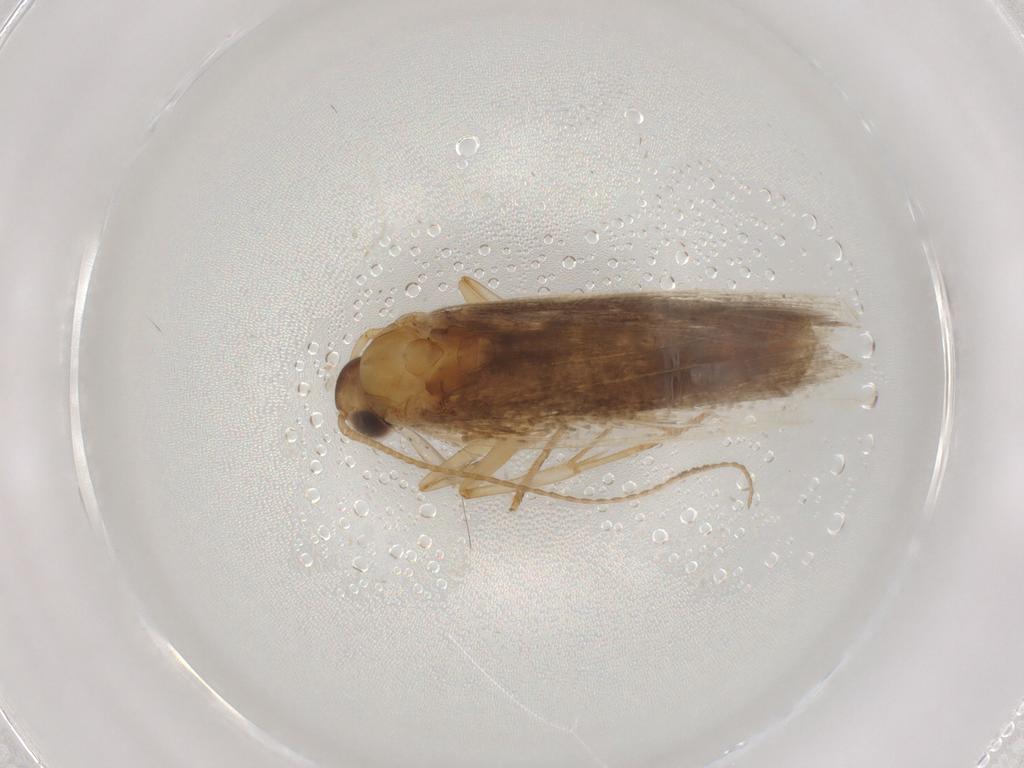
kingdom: Animalia
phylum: Arthropoda
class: Insecta
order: Lepidoptera
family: Gelechiidae
